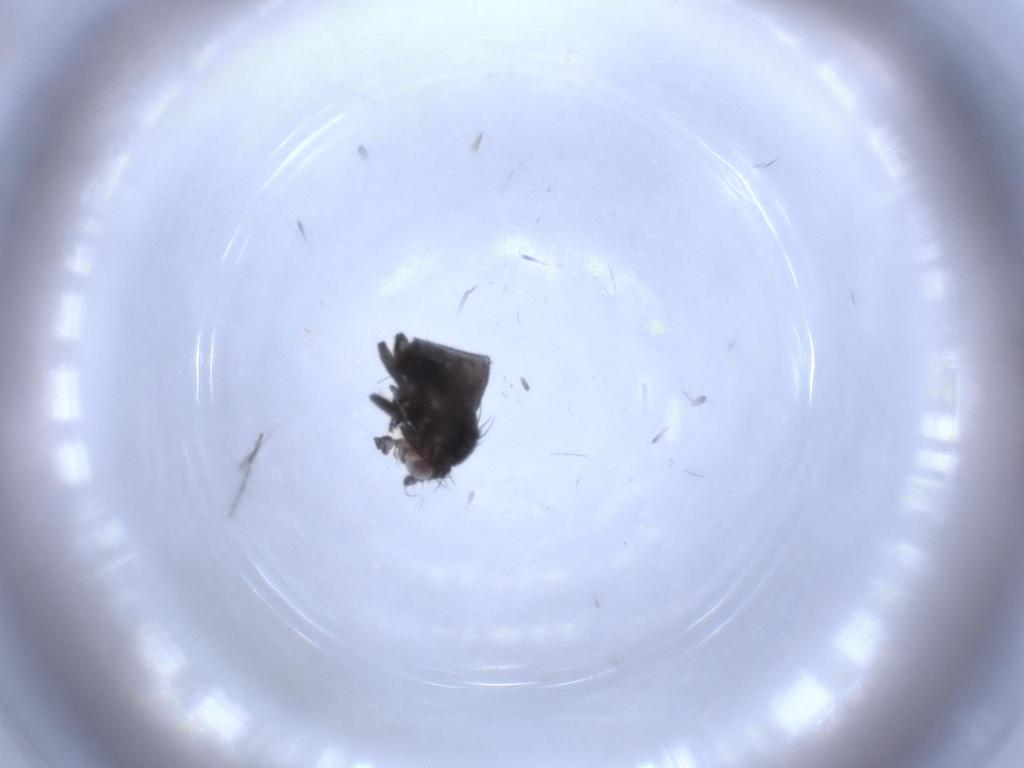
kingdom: Animalia
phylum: Arthropoda
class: Insecta
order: Diptera
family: Sphaeroceridae
